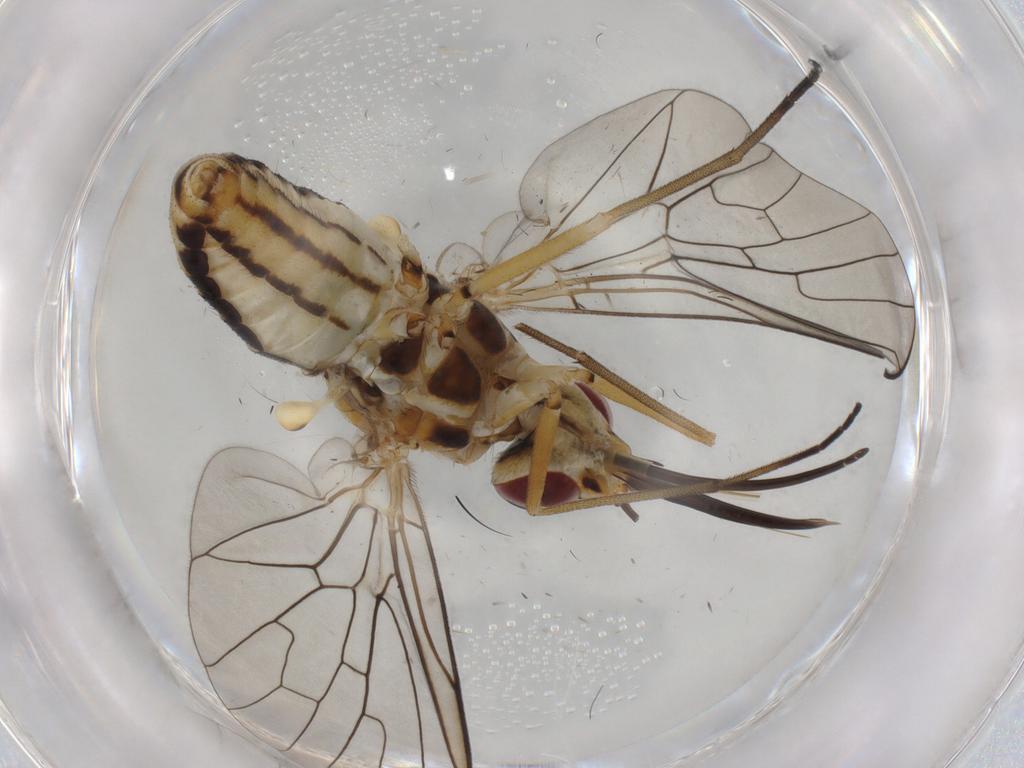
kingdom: Animalia
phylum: Arthropoda
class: Insecta
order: Diptera
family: Bombyliidae
